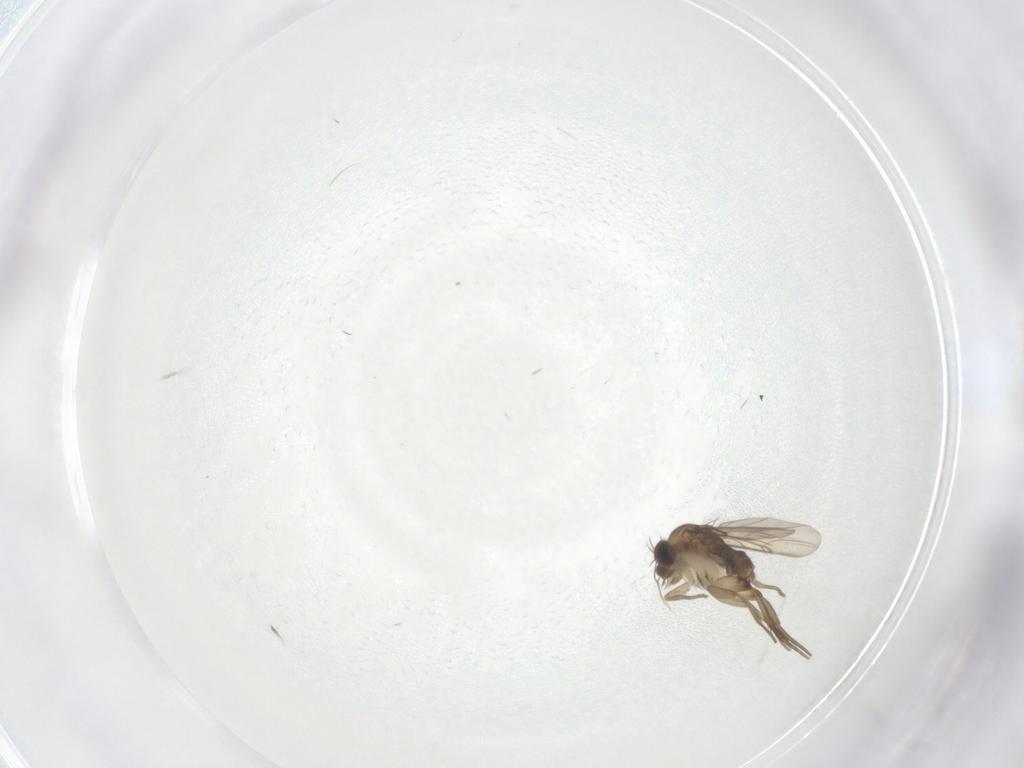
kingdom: Animalia
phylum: Arthropoda
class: Insecta
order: Diptera
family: Ceratopogonidae
